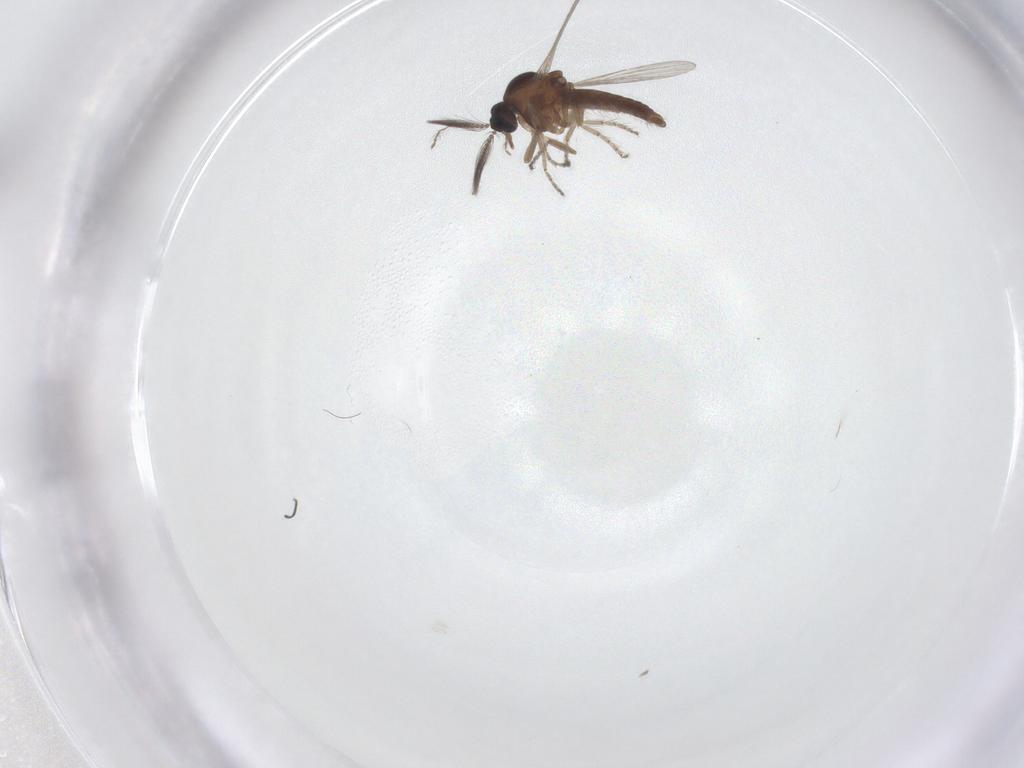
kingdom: Animalia
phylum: Arthropoda
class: Insecta
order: Diptera
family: Ceratopogonidae
